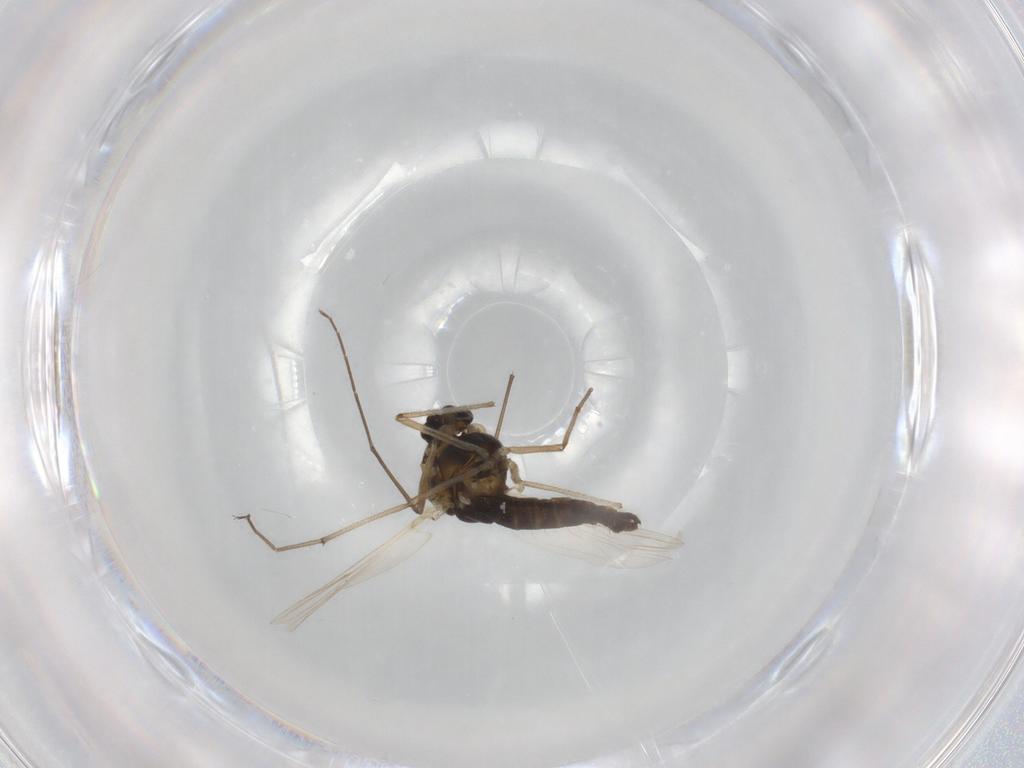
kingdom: Animalia
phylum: Arthropoda
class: Insecta
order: Diptera
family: Chironomidae
